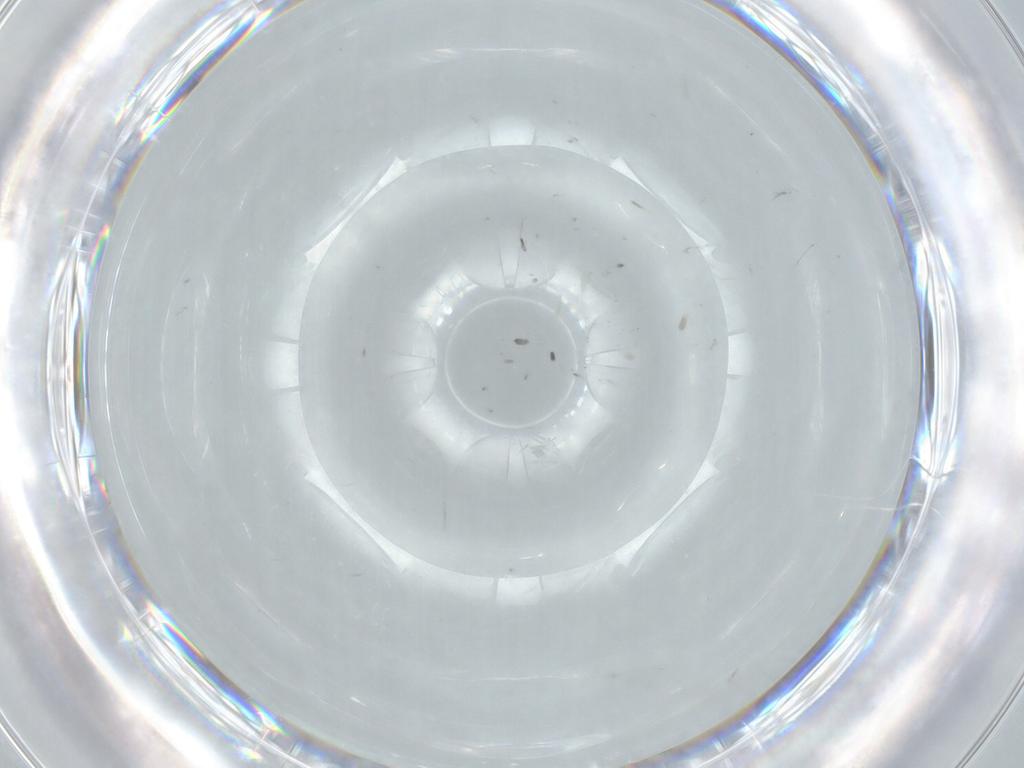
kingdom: Animalia
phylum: Arthropoda
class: Insecta
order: Diptera
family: Cecidomyiidae
